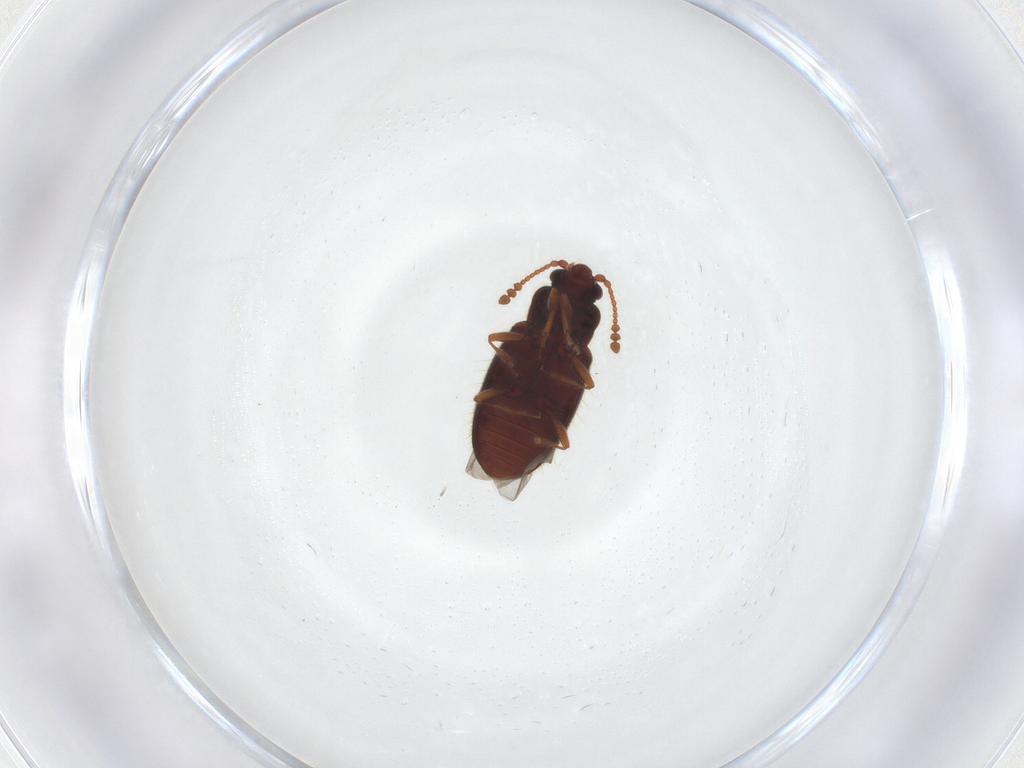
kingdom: Animalia
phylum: Arthropoda
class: Insecta
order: Coleoptera
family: Cryptophagidae
